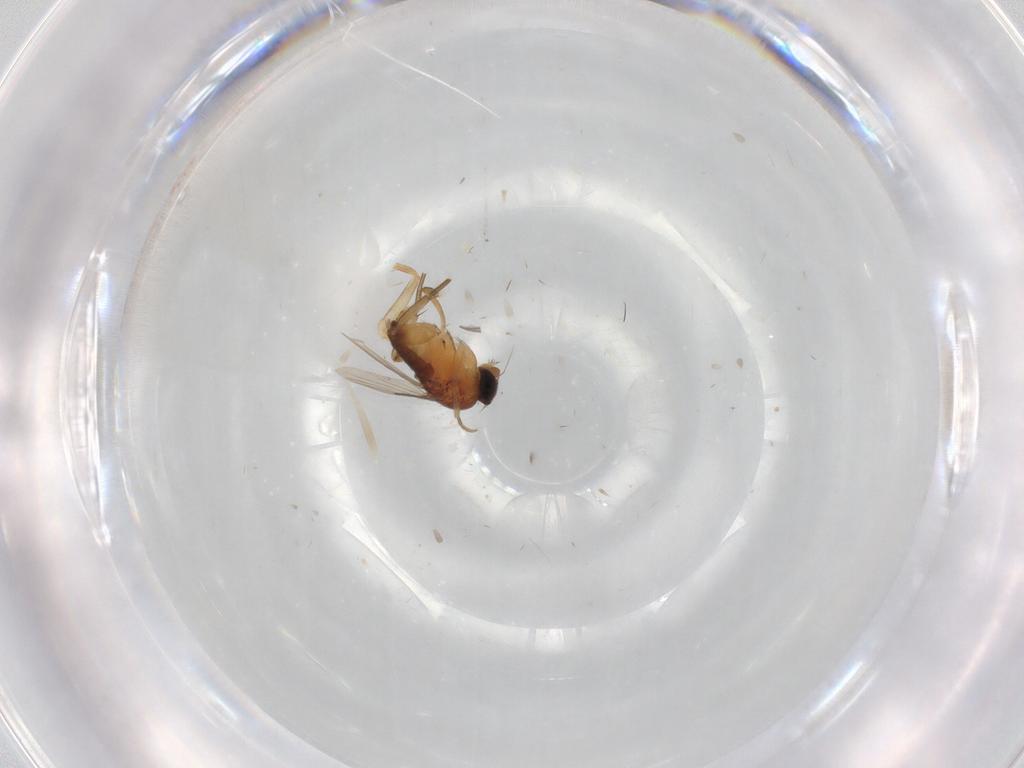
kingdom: Animalia
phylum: Arthropoda
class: Insecta
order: Diptera
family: Phoridae
